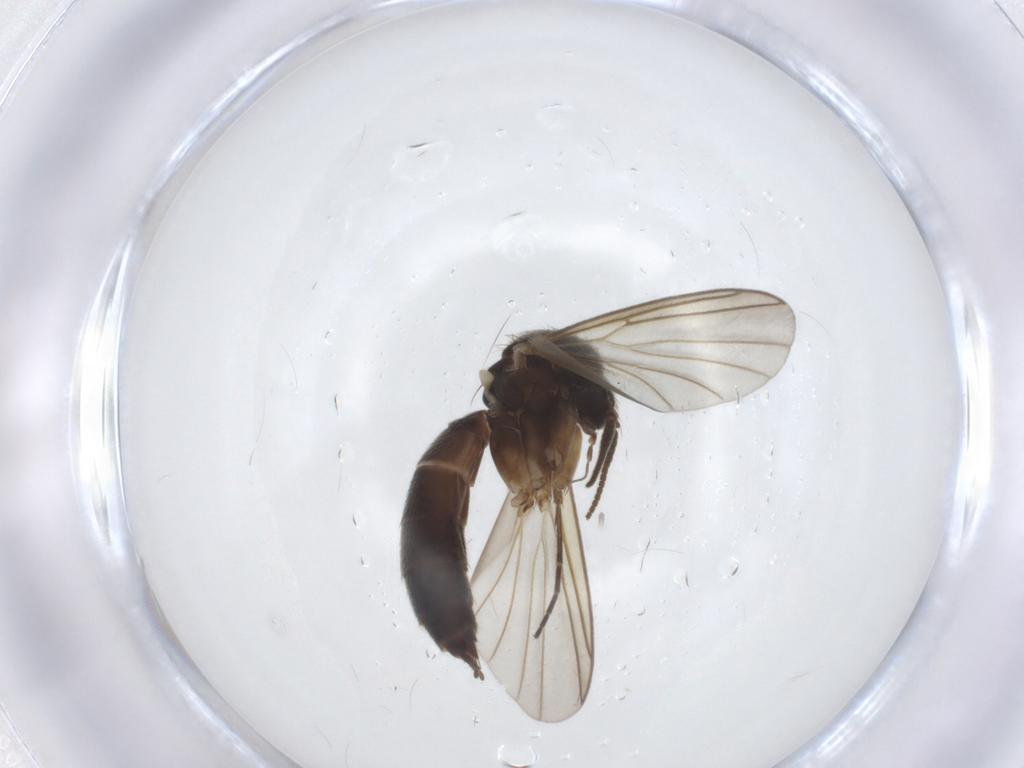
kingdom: Animalia
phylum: Arthropoda
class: Insecta
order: Diptera
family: Mycetophilidae
